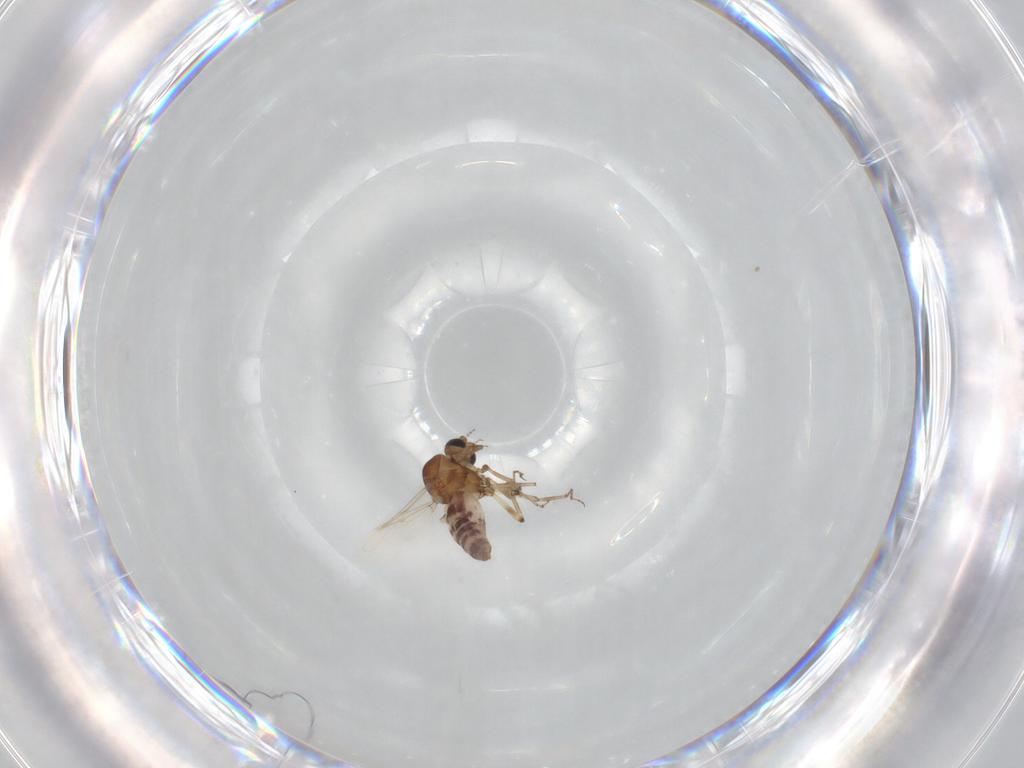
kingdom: Animalia
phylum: Arthropoda
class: Insecta
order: Diptera
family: Ceratopogonidae
